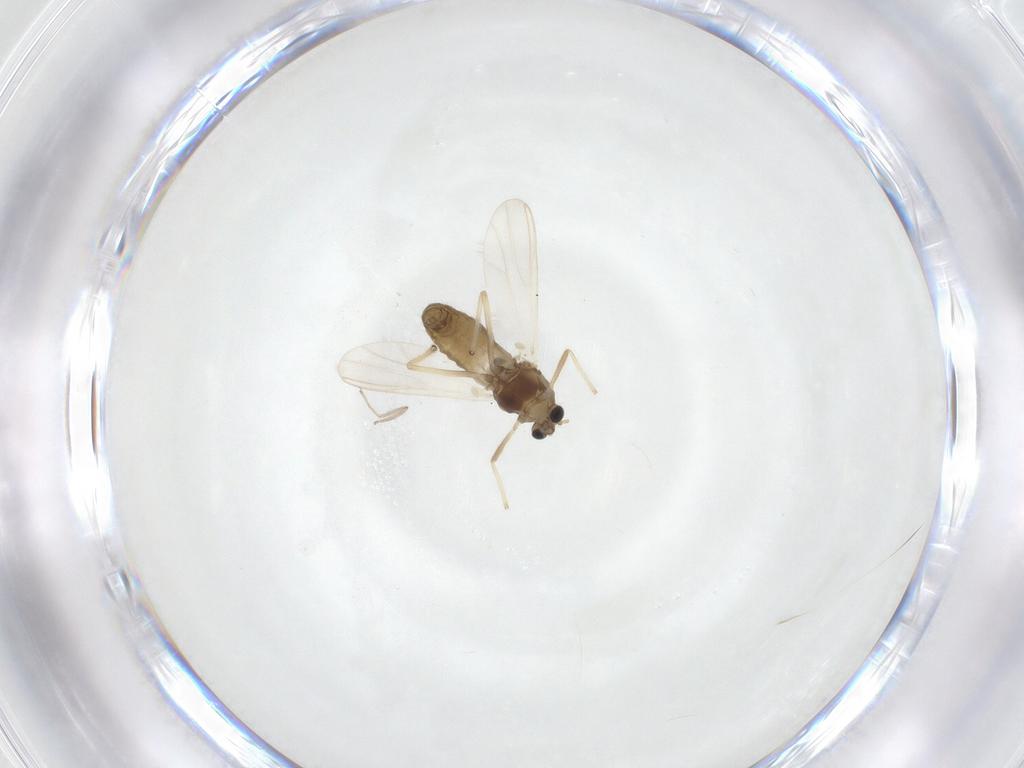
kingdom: Animalia
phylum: Arthropoda
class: Insecta
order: Diptera
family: Chironomidae
